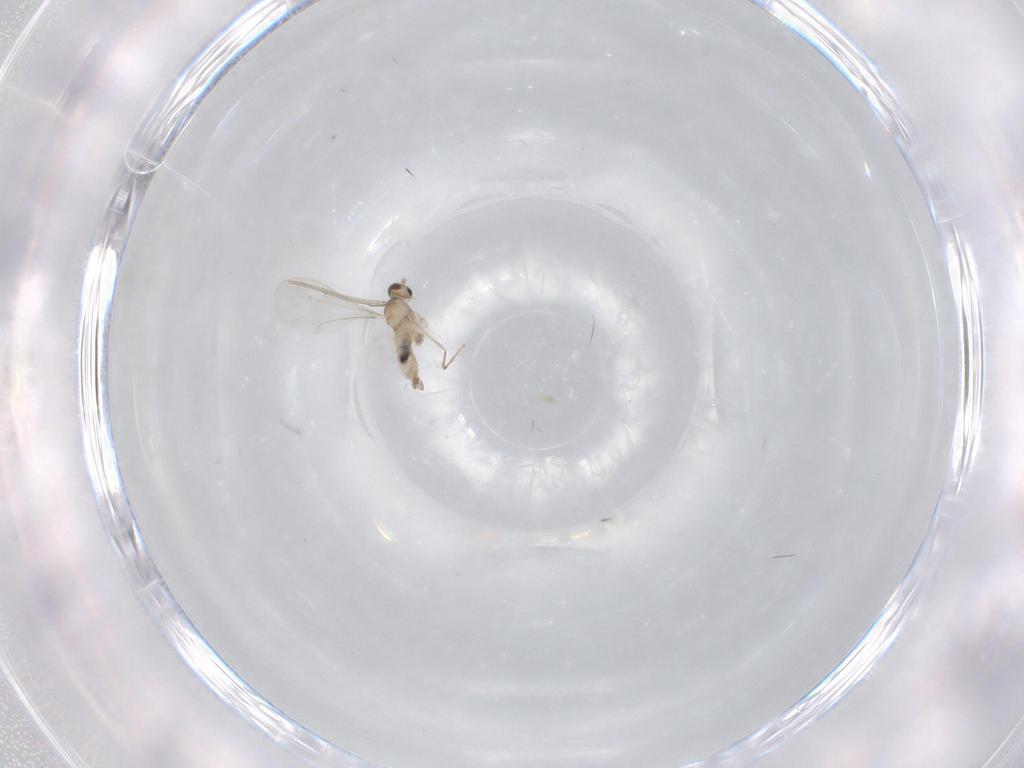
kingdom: Animalia
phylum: Arthropoda
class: Insecta
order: Diptera
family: Cecidomyiidae
